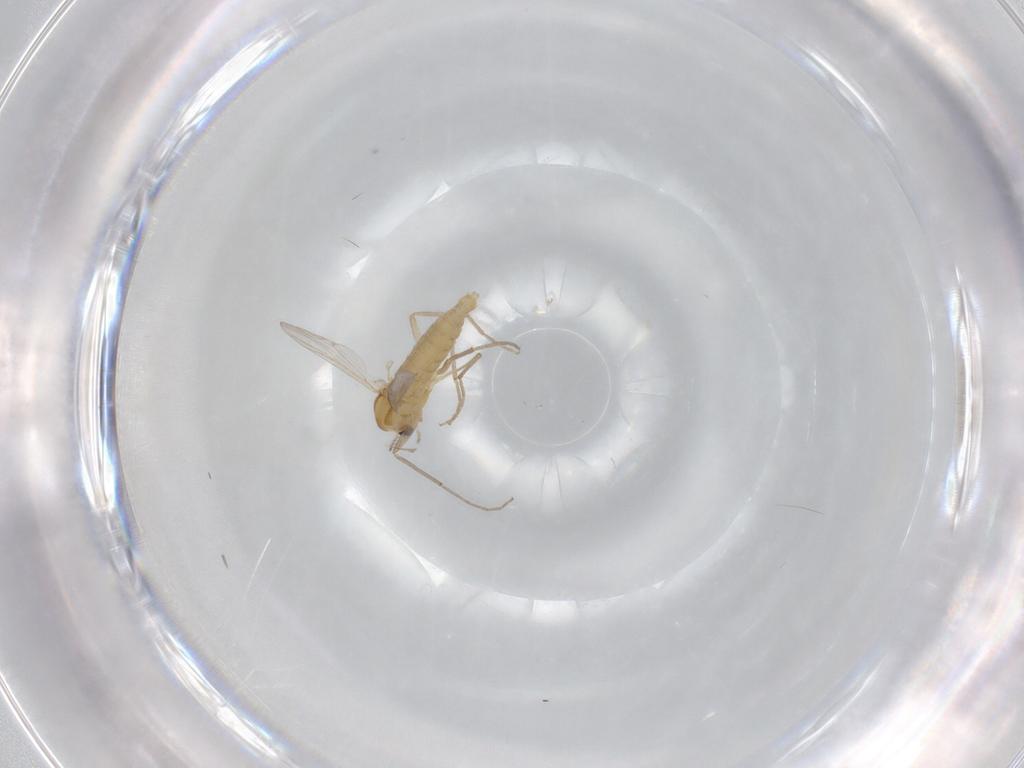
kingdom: Animalia
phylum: Arthropoda
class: Insecta
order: Diptera
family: Chironomidae
